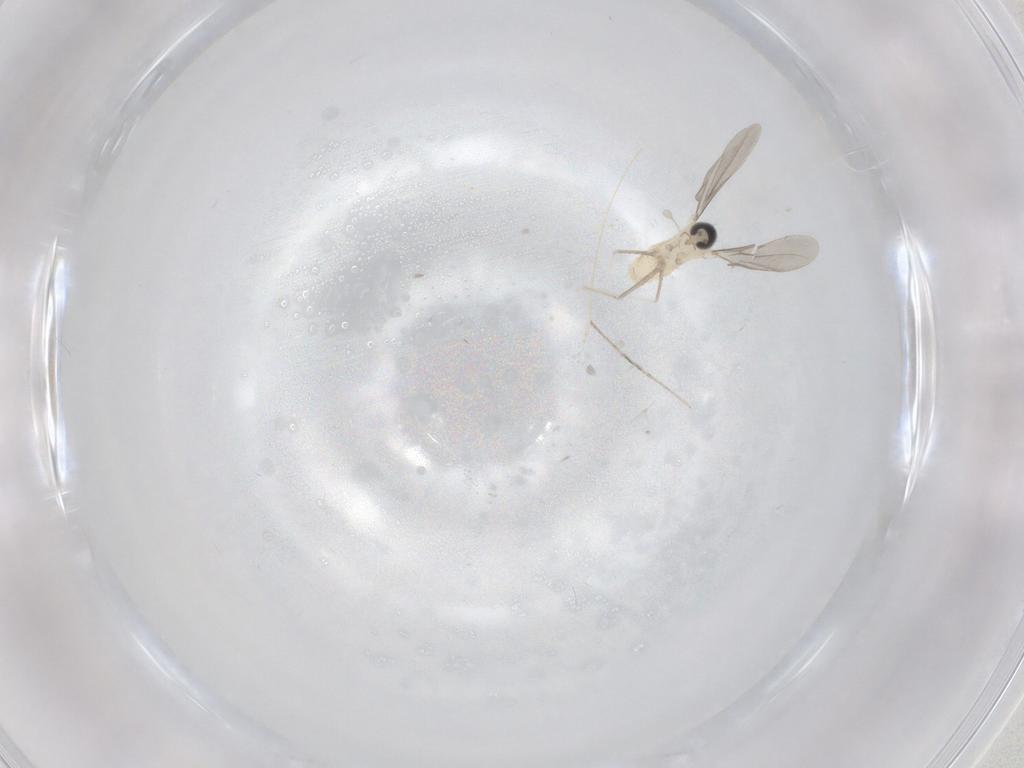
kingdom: Animalia
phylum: Arthropoda
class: Insecta
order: Diptera
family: Cecidomyiidae
